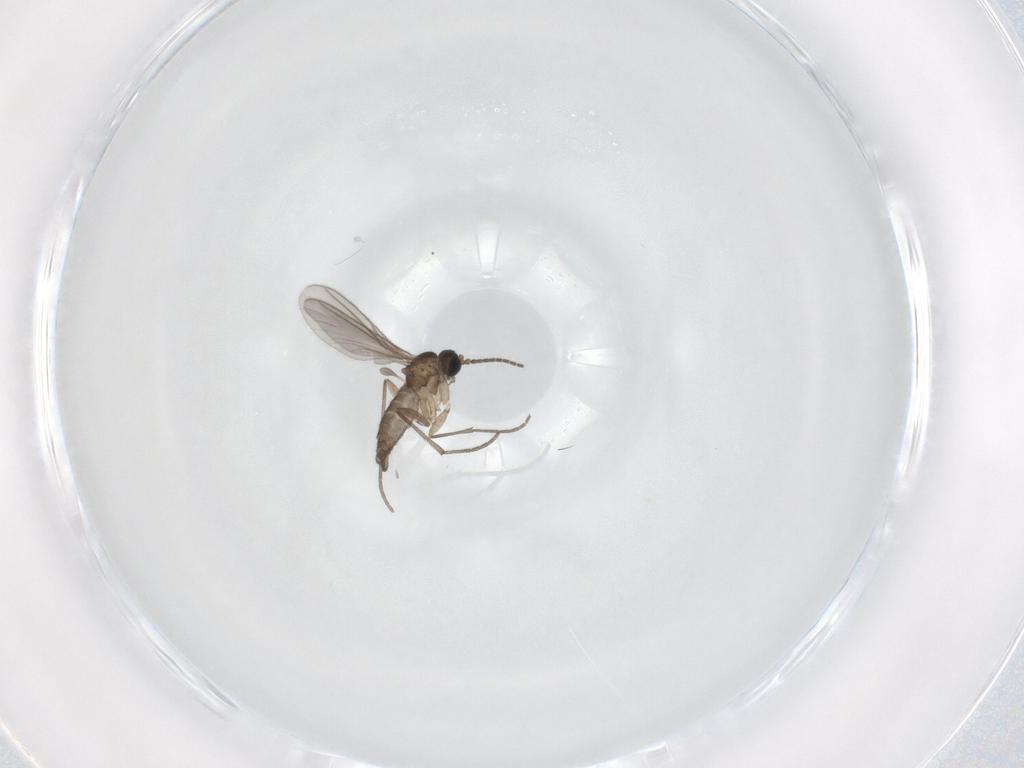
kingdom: Animalia
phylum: Arthropoda
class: Insecta
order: Diptera
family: Sciaridae
